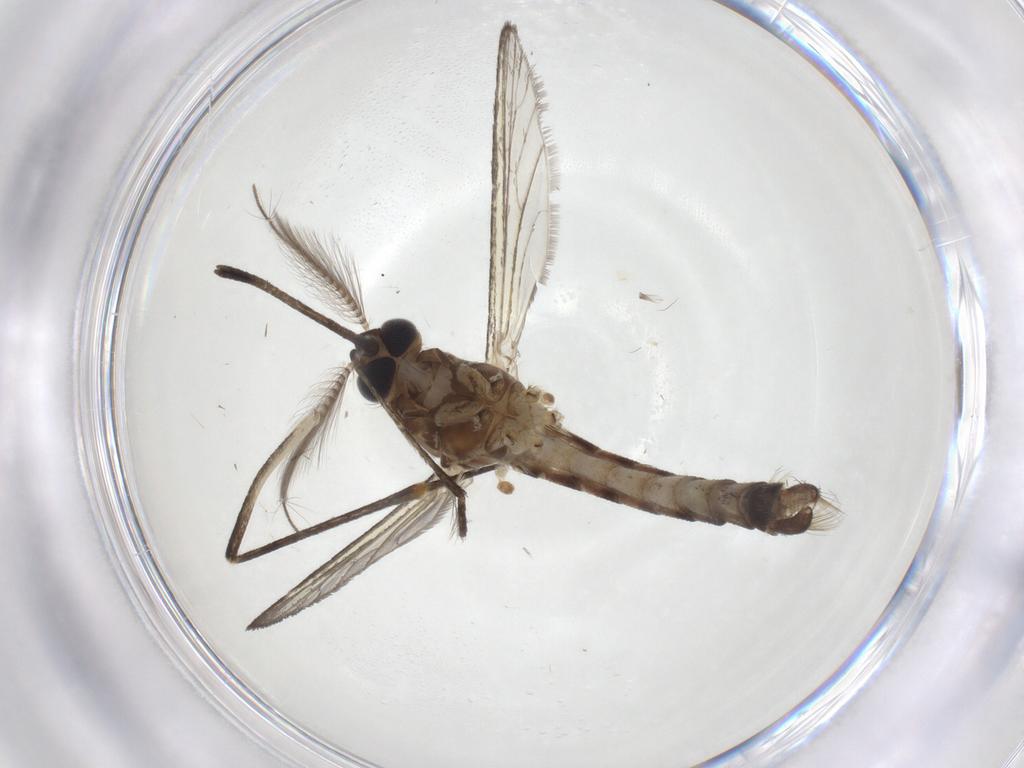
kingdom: Animalia
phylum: Arthropoda
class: Insecta
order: Diptera
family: Culicidae
